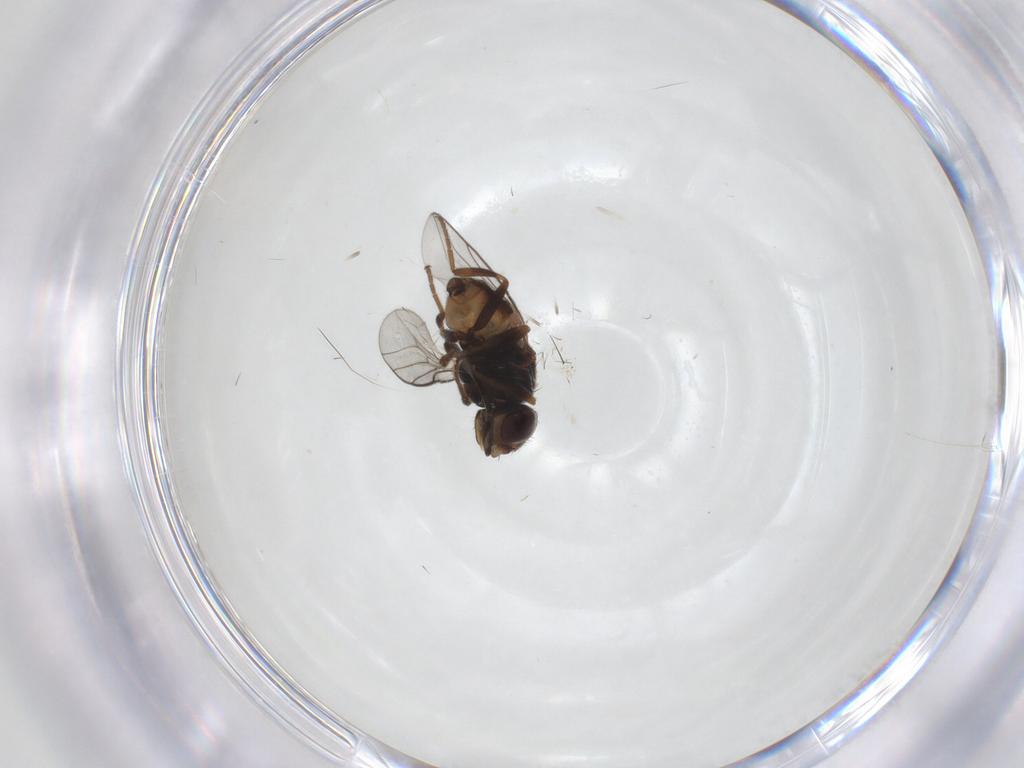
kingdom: Animalia
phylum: Arthropoda
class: Insecta
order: Diptera
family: Chloropidae
